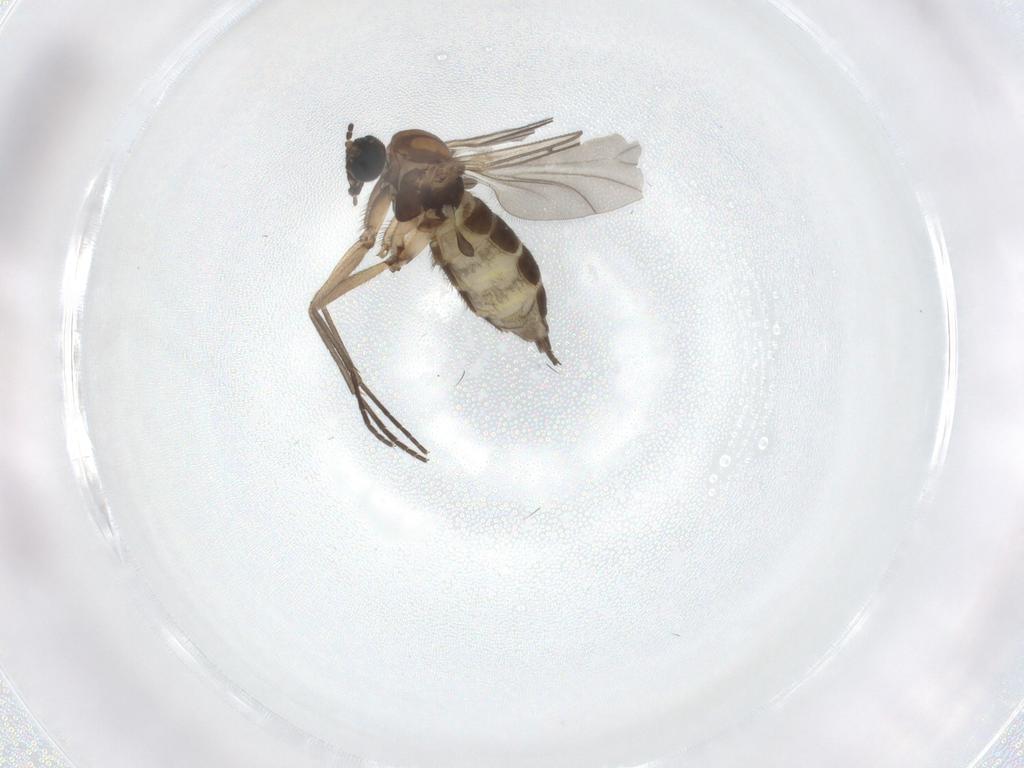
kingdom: Animalia
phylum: Arthropoda
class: Insecta
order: Diptera
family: Sciaridae
